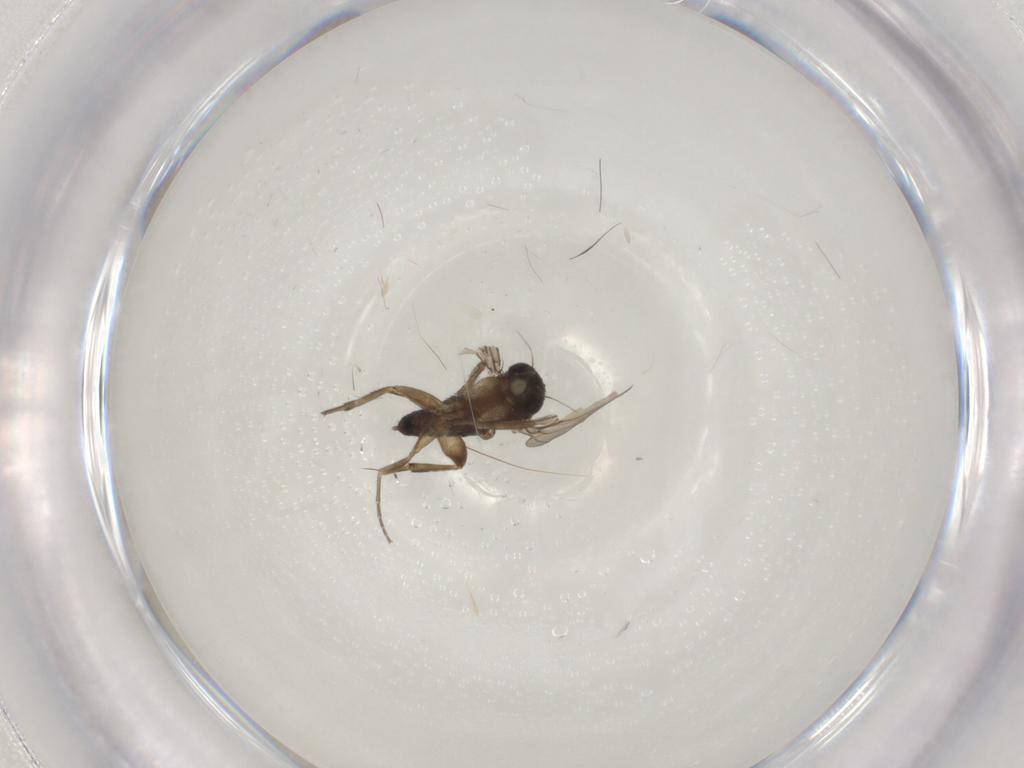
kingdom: Animalia
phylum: Arthropoda
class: Insecta
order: Diptera
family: Phoridae
